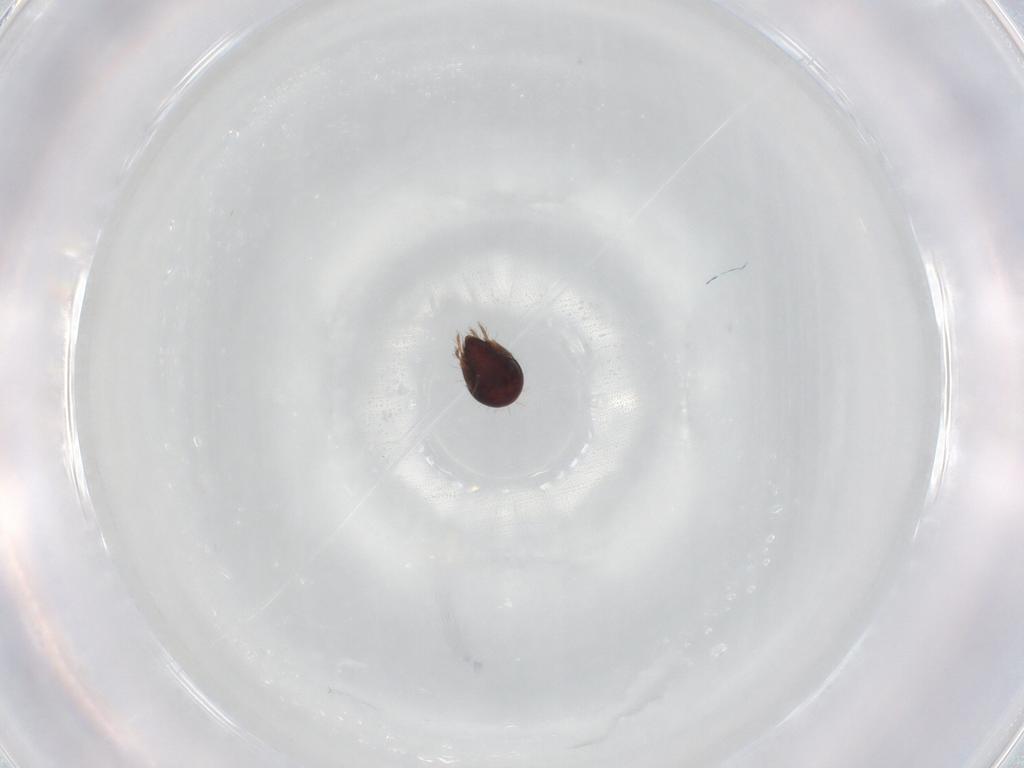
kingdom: Animalia
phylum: Arthropoda
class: Arachnida
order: Sarcoptiformes
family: Humerobatidae
